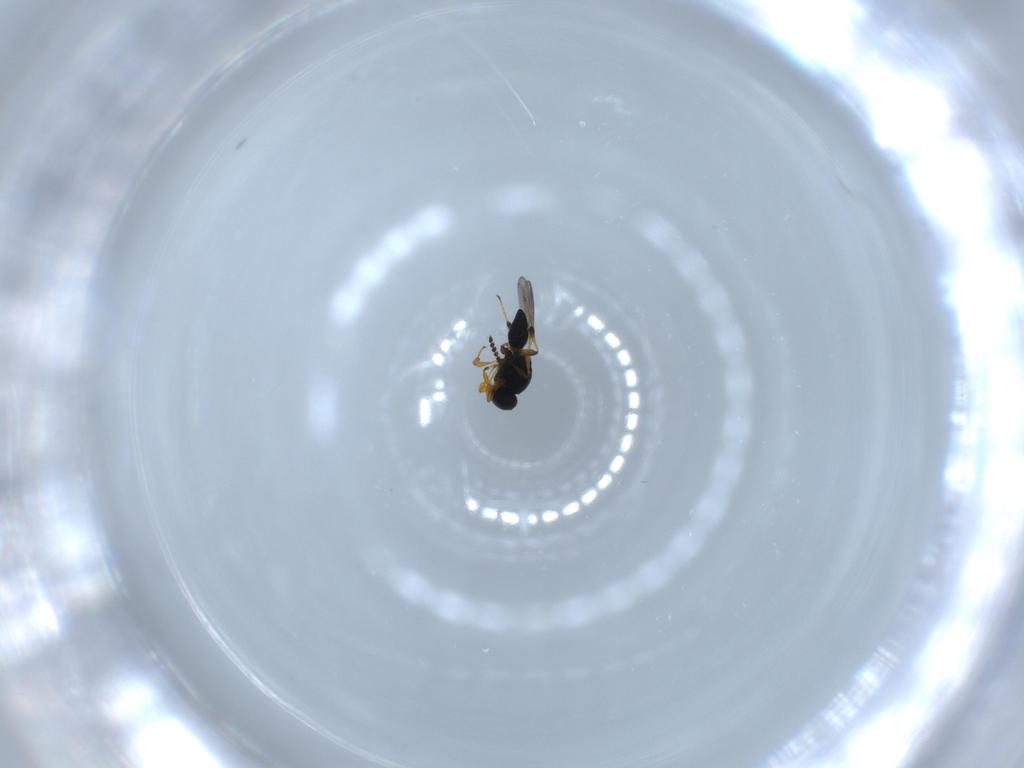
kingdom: Animalia
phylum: Arthropoda
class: Insecta
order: Hymenoptera
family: Platygastridae
